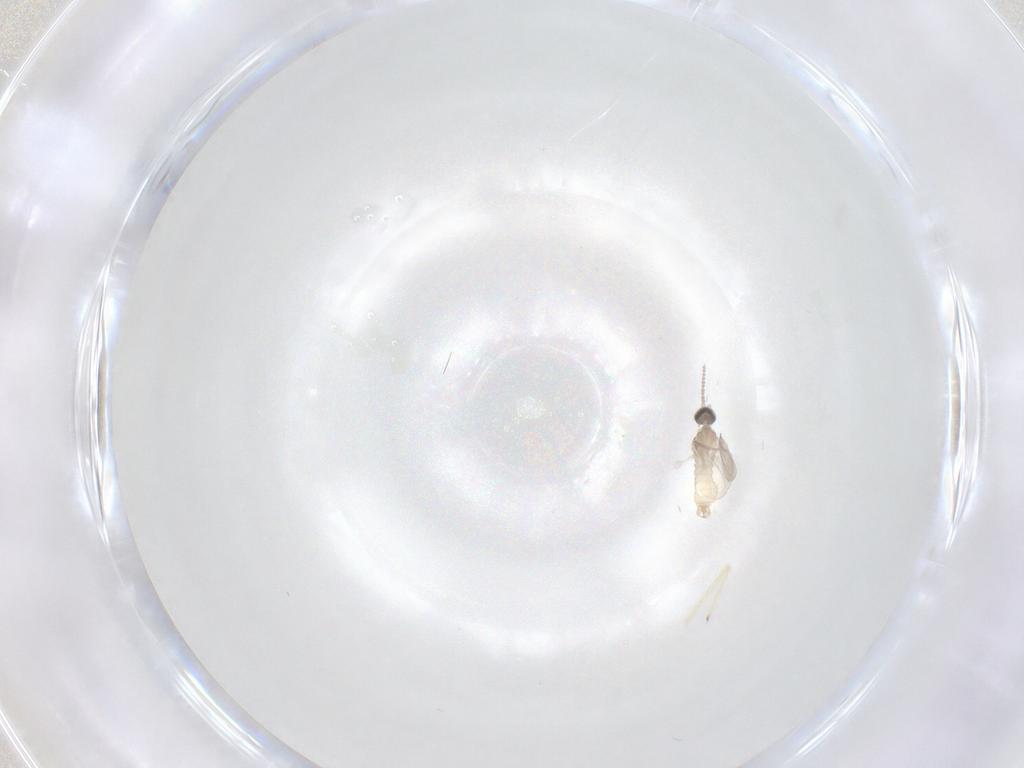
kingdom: Animalia
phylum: Arthropoda
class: Insecta
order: Diptera
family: Chironomidae
